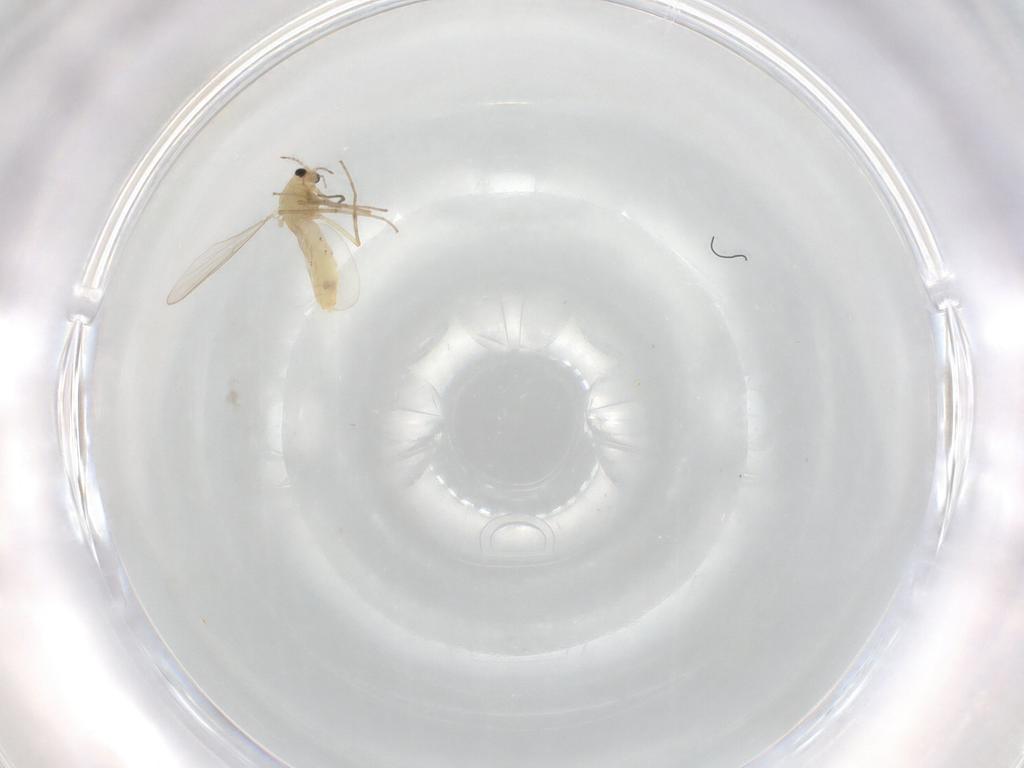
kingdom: Animalia
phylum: Arthropoda
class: Insecta
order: Diptera
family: Chironomidae
